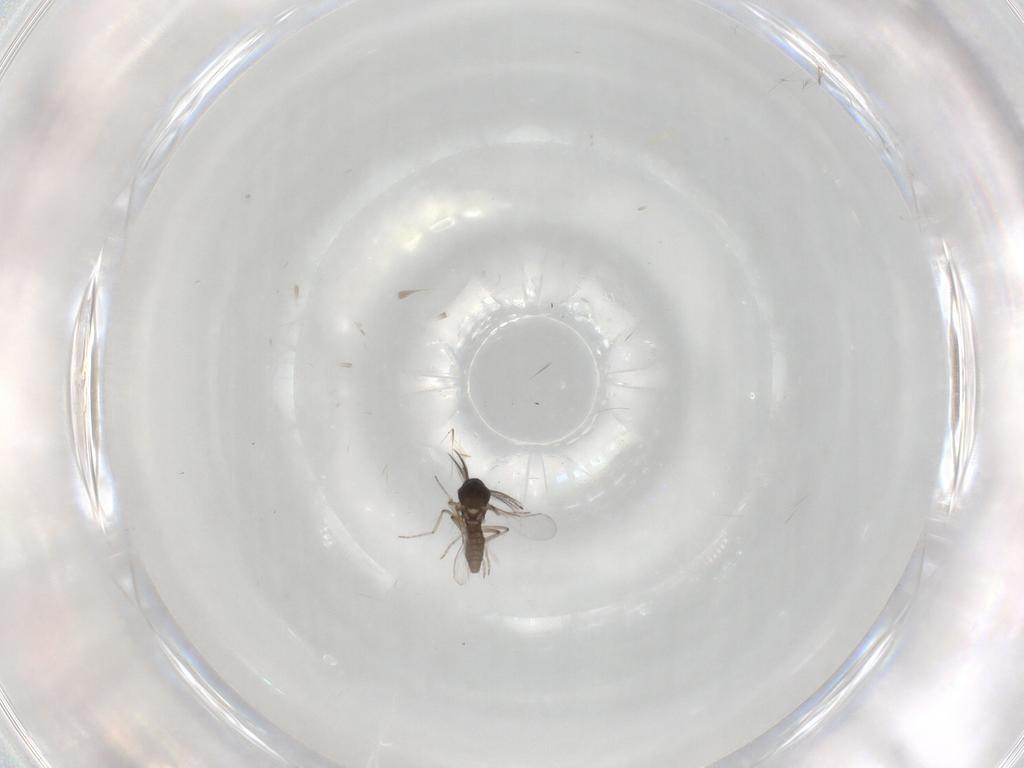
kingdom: Animalia
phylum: Arthropoda
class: Insecta
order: Diptera
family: Ceratopogonidae
